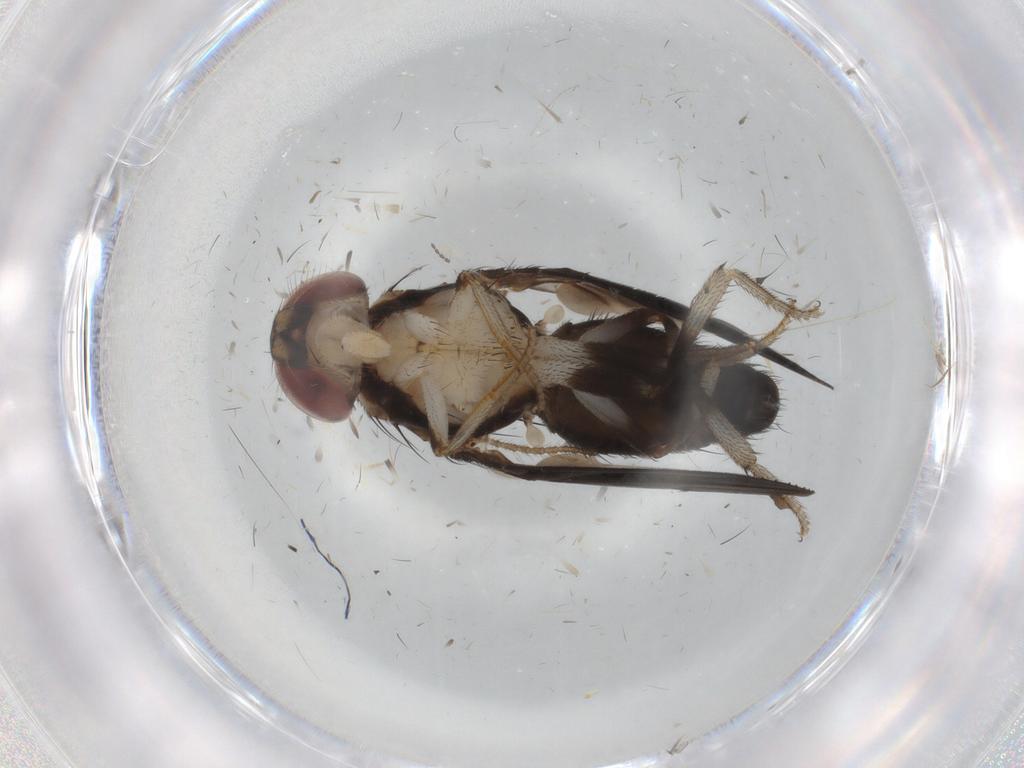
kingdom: Animalia
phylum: Arthropoda
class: Insecta
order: Diptera
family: Drosophilidae
